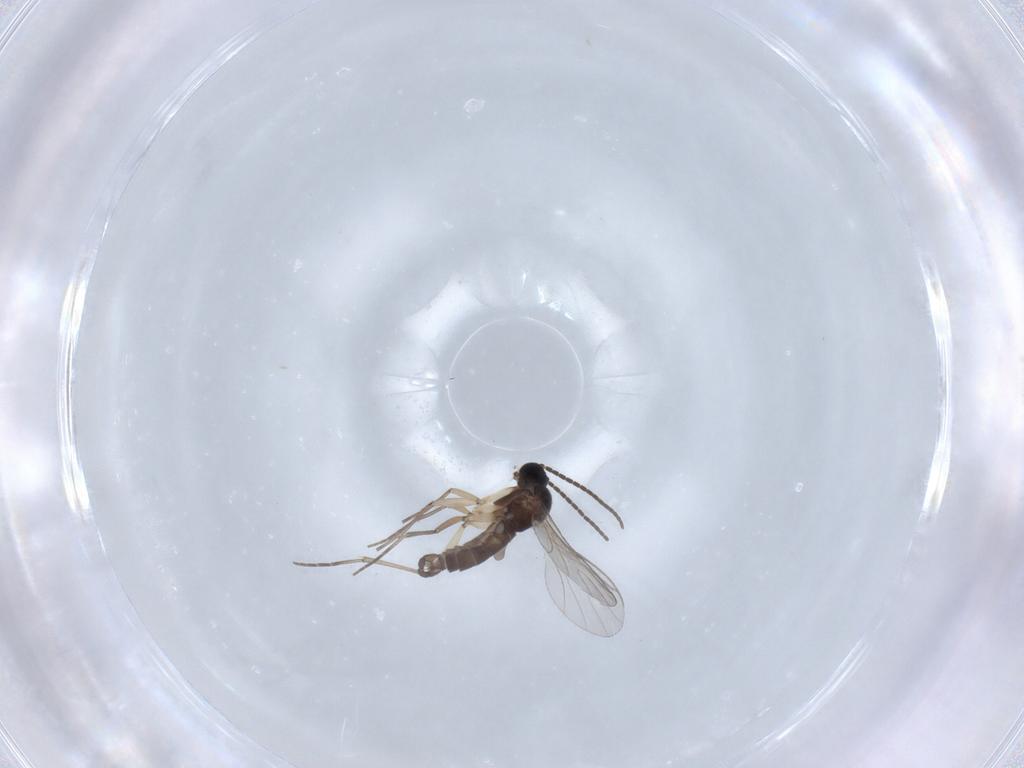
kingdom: Animalia
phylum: Arthropoda
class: Insecta
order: Diptera
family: Sciaridae
